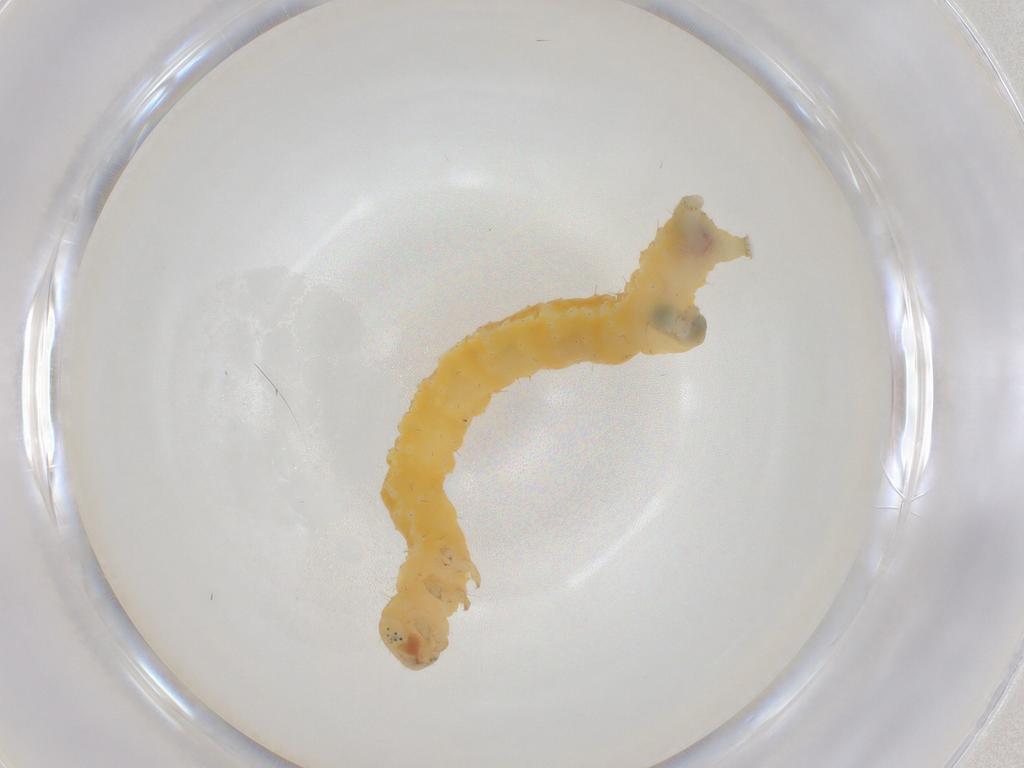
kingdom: Animalia
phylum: Arthropoda
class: Insecta
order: Lepidoptera
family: Geometridae
